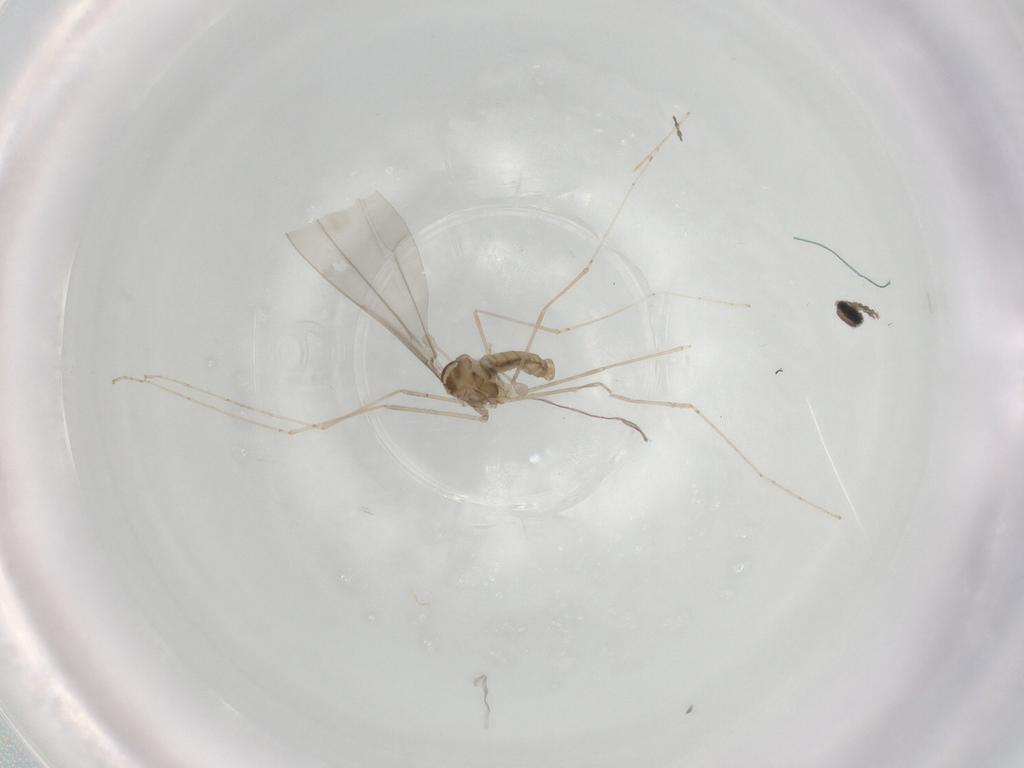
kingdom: Animalia
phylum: Arthropoda
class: Insecta
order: Diptera
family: Cecidomyiidae
